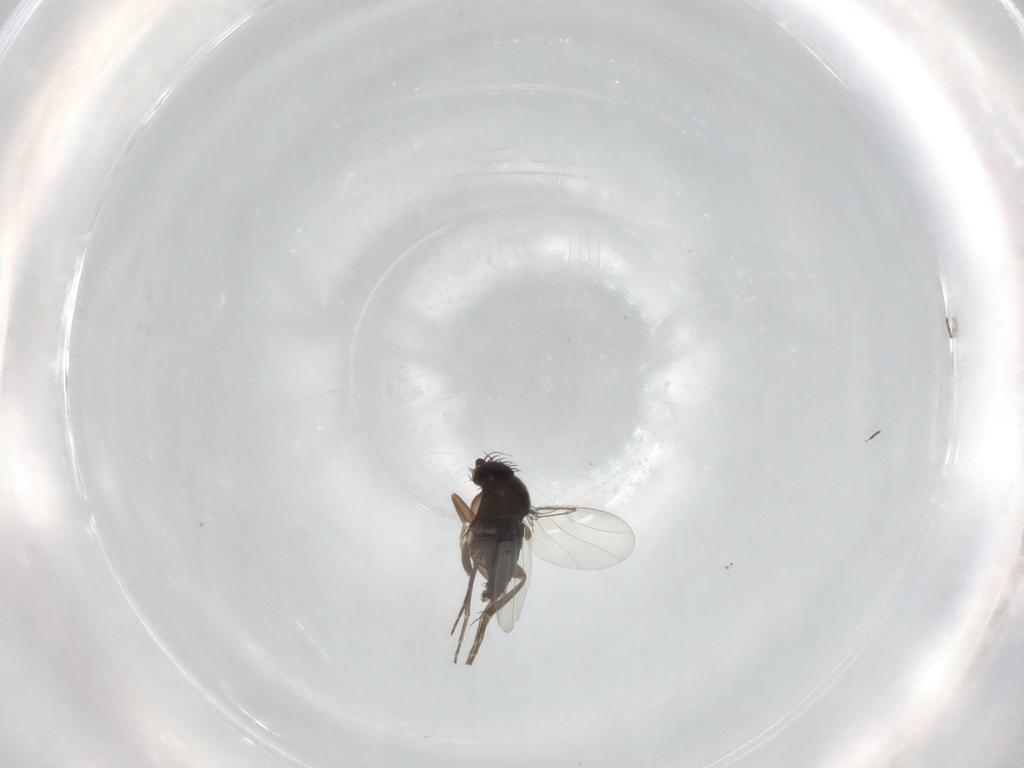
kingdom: Animalia
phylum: Arthropoda
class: Insecta
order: Diptera
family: Phoridae
